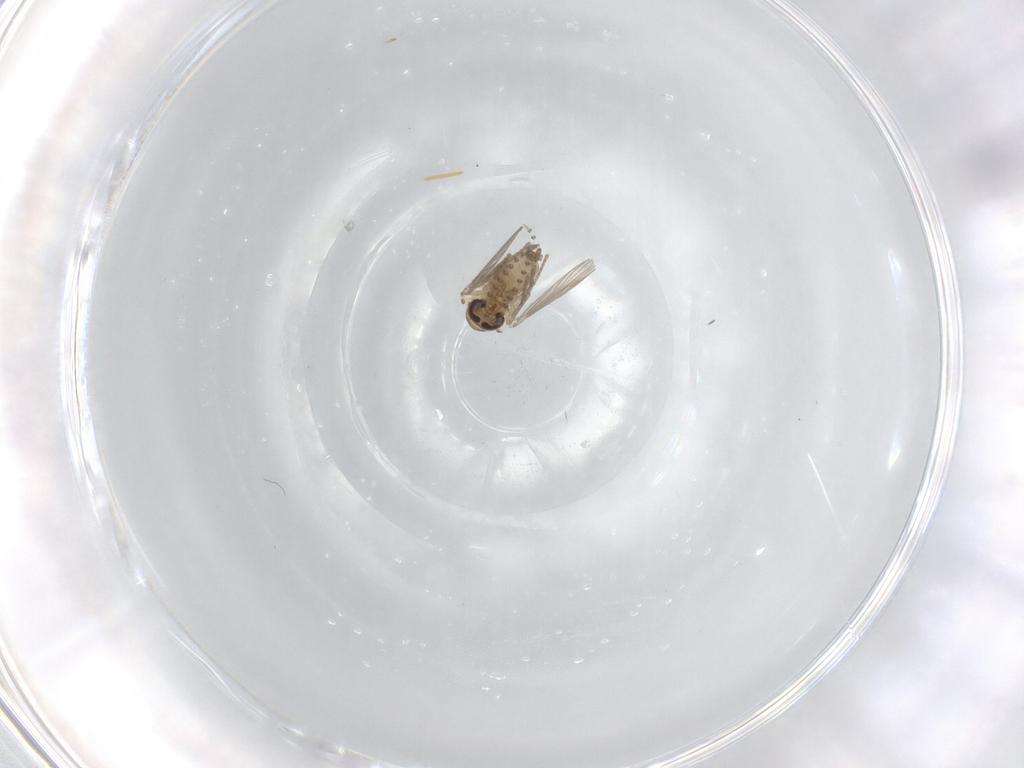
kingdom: Animalia
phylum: Arthropoda
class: Insecta
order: Diptera
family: Psychodidae
